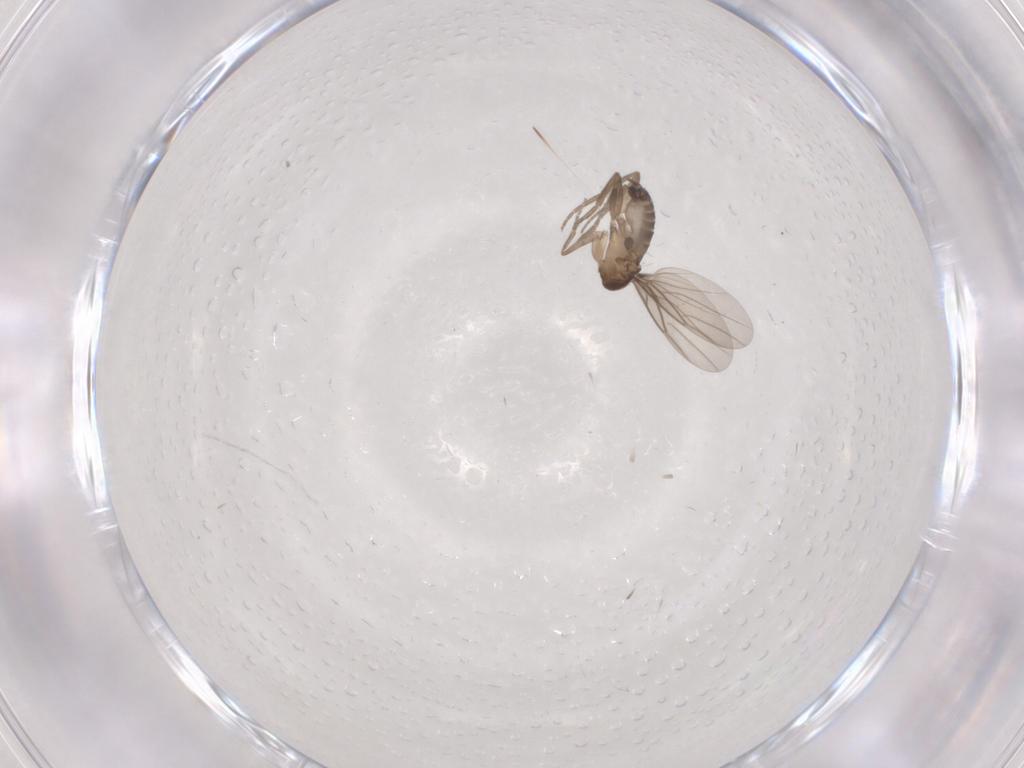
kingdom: Animalia
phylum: Arthropoda
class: Insecta
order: Diptera
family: Phoridae
